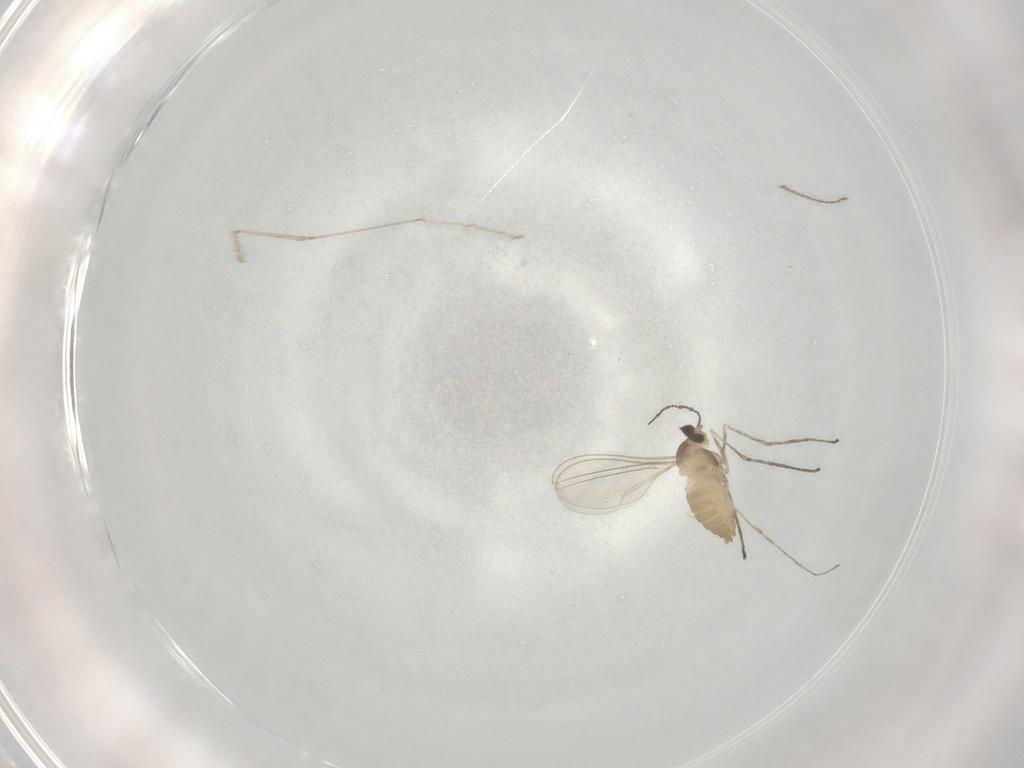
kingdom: Animalia
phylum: Arthropoda
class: Insecta
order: Diptera
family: Cecidomyiidae
